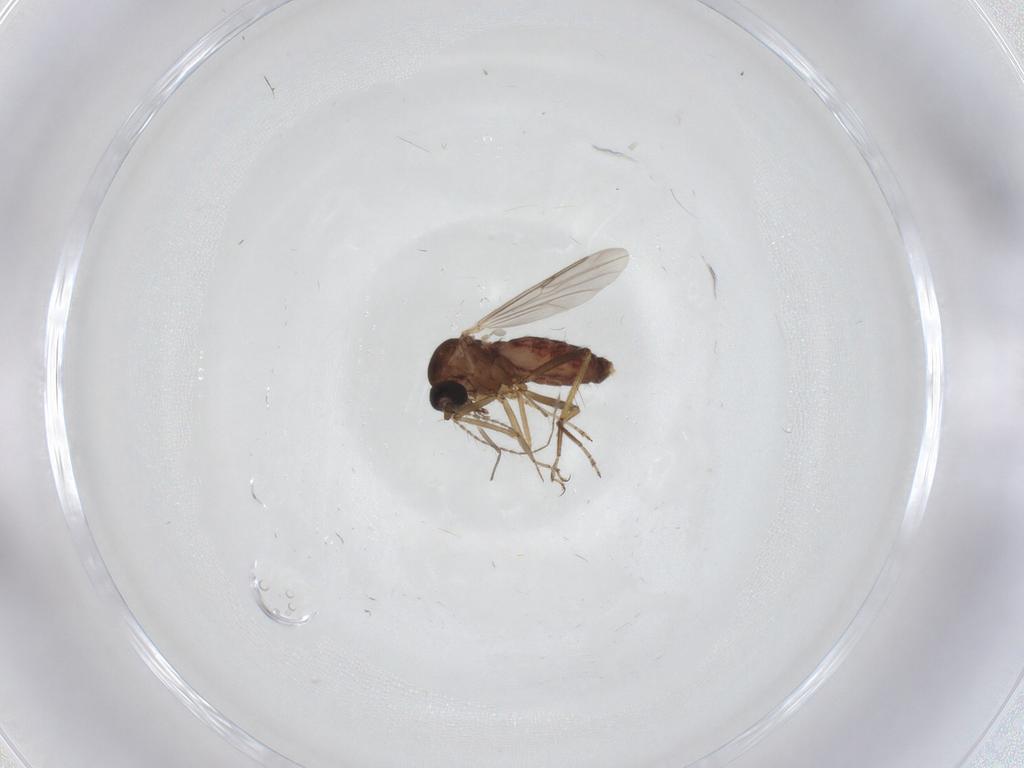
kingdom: Animalia
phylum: Arthropoda
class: Insecta
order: Diptera
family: Ceratopogonidae
